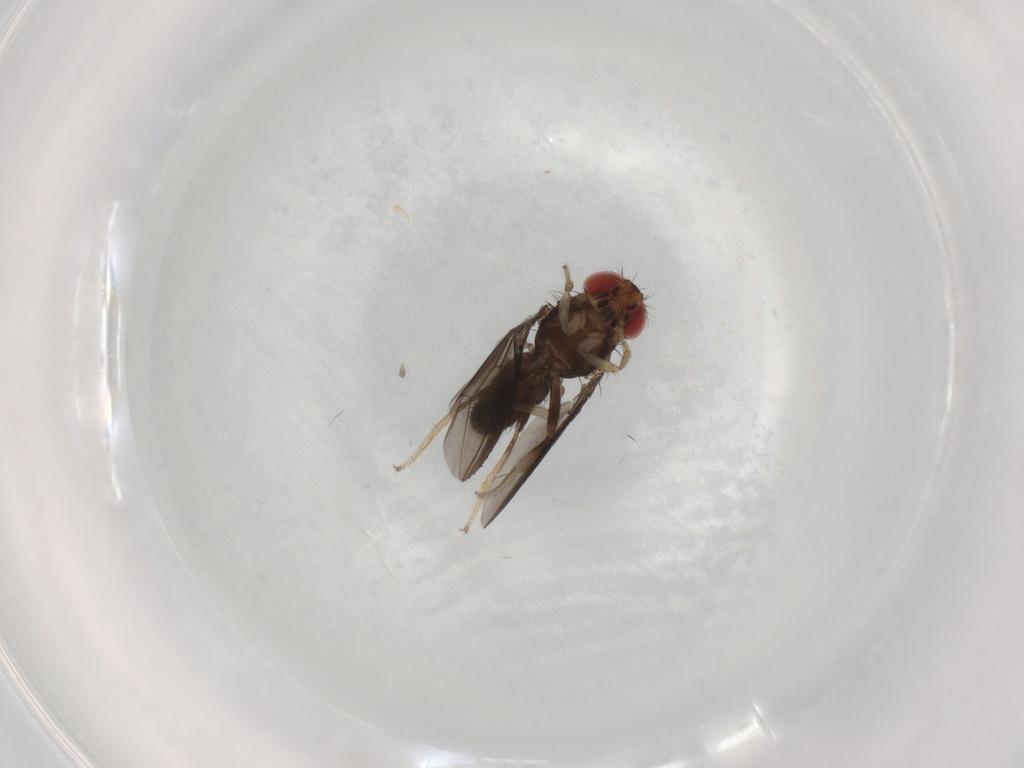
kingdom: Animalia
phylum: Arthropoda
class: Insecta
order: Diptera
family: Drosophilidae
